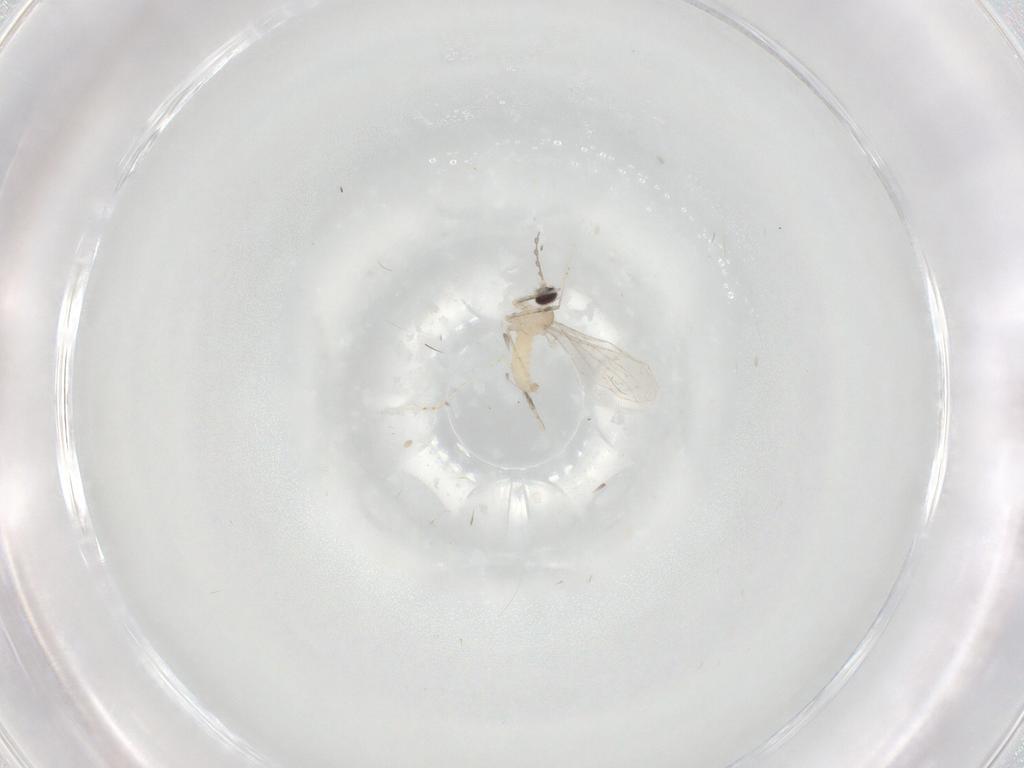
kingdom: Animalia
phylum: Arthropoda
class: Insecta
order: Diptera
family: Cecidomyiidae
